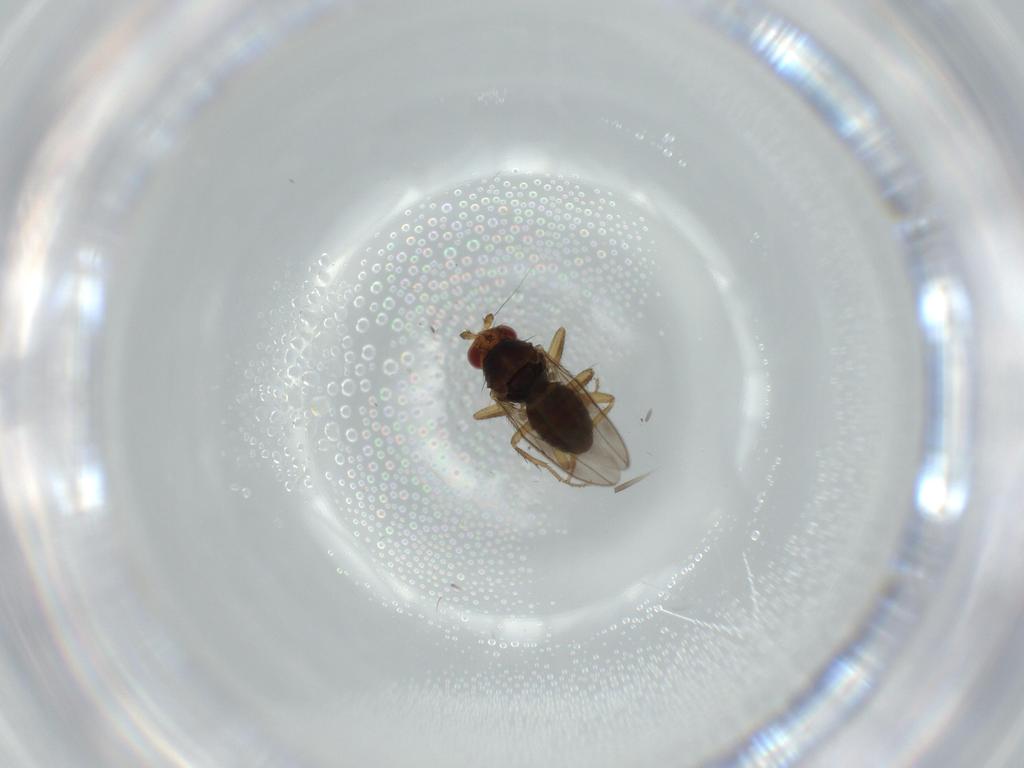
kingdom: Animalia
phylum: Arthropoda
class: Insecta
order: Diptera
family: Sphaeroceridae
